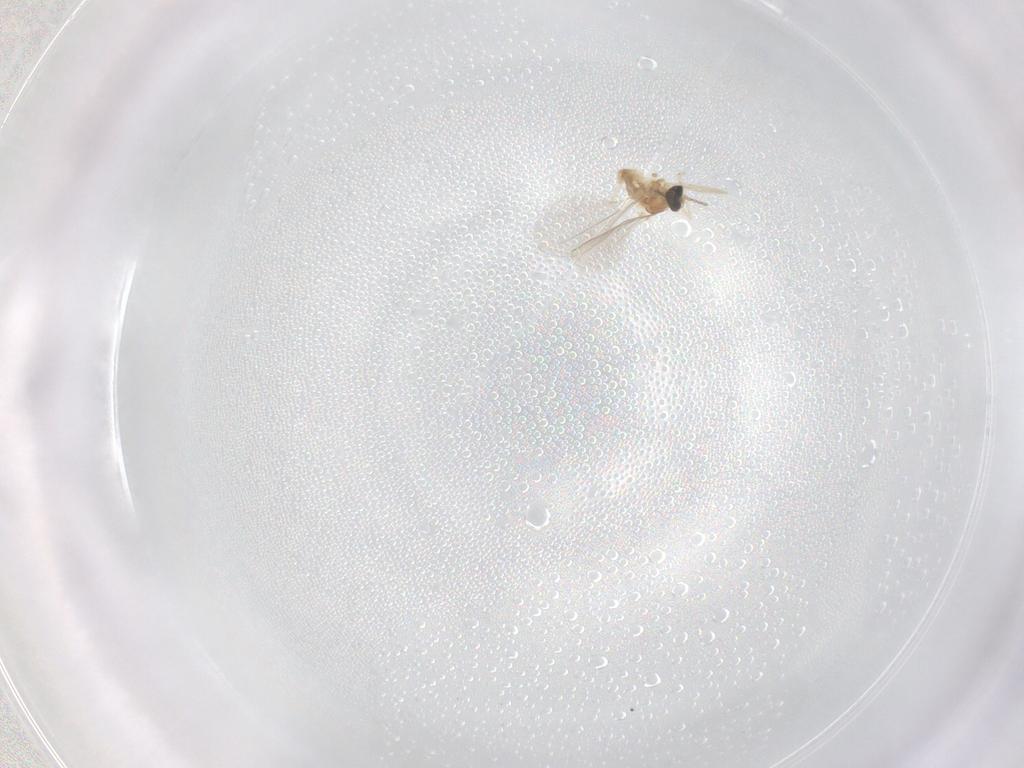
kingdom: Animalia
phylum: Arthropoda
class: Insecta
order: Diptera
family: Cecidomyiidae
